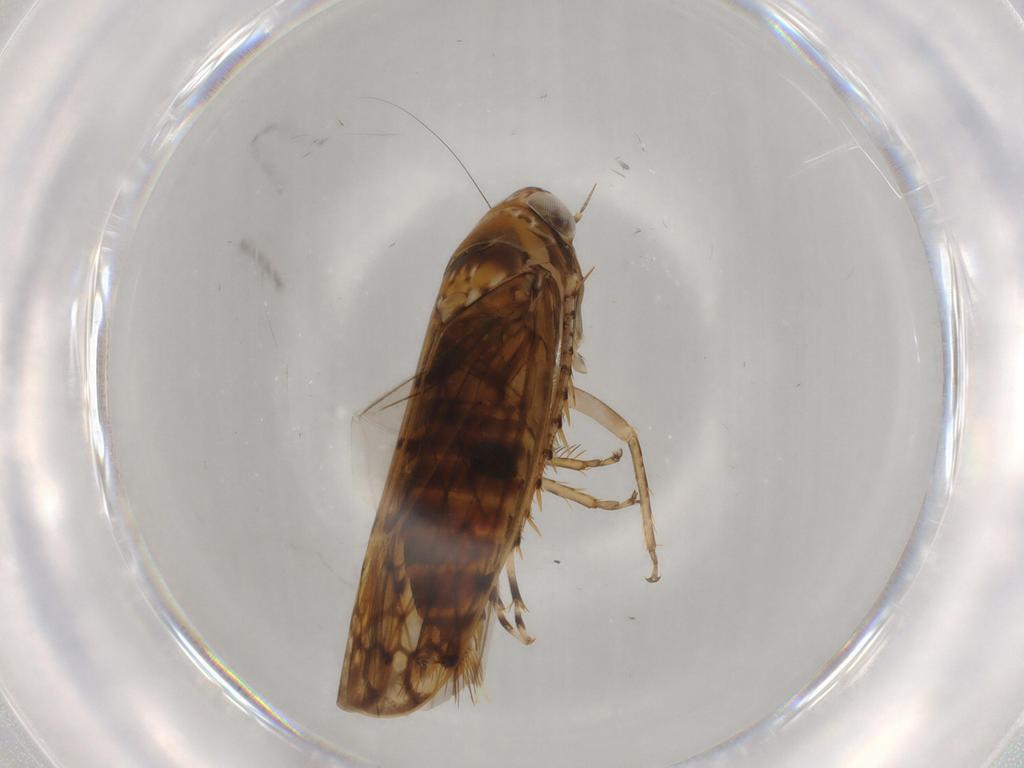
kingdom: Animalia
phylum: Arthropoda
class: Insecta
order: Hemiptera
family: Cicadellidae
